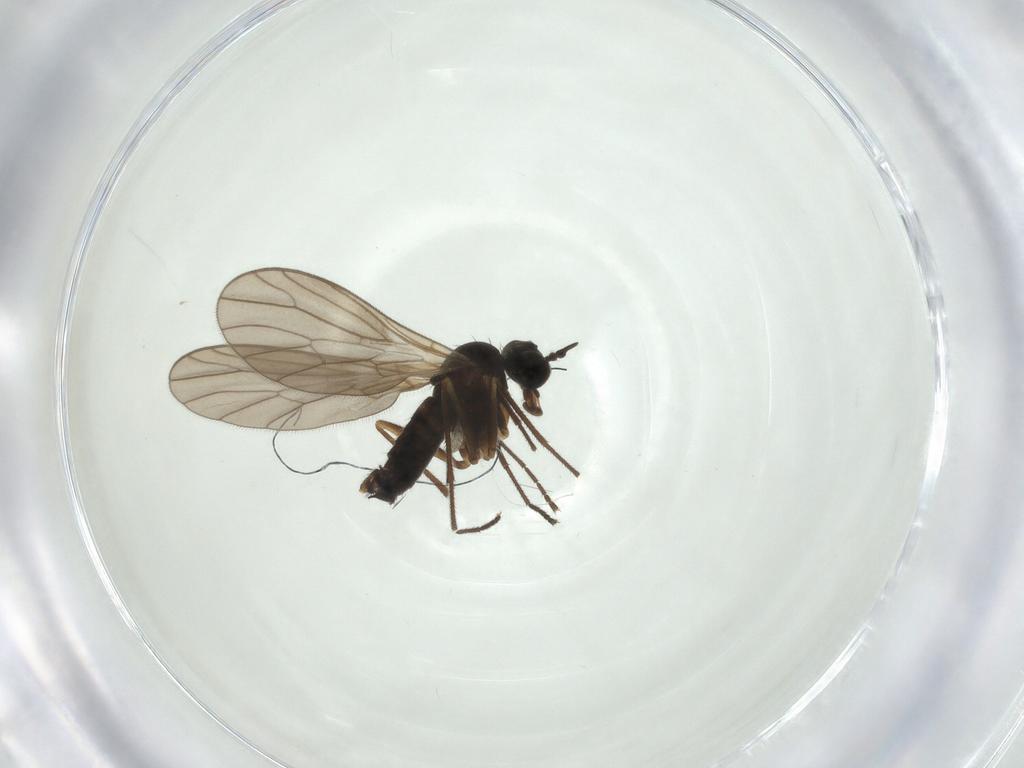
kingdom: Animalia
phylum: Arthropoda
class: Insecta
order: Diptera
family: Empididae
